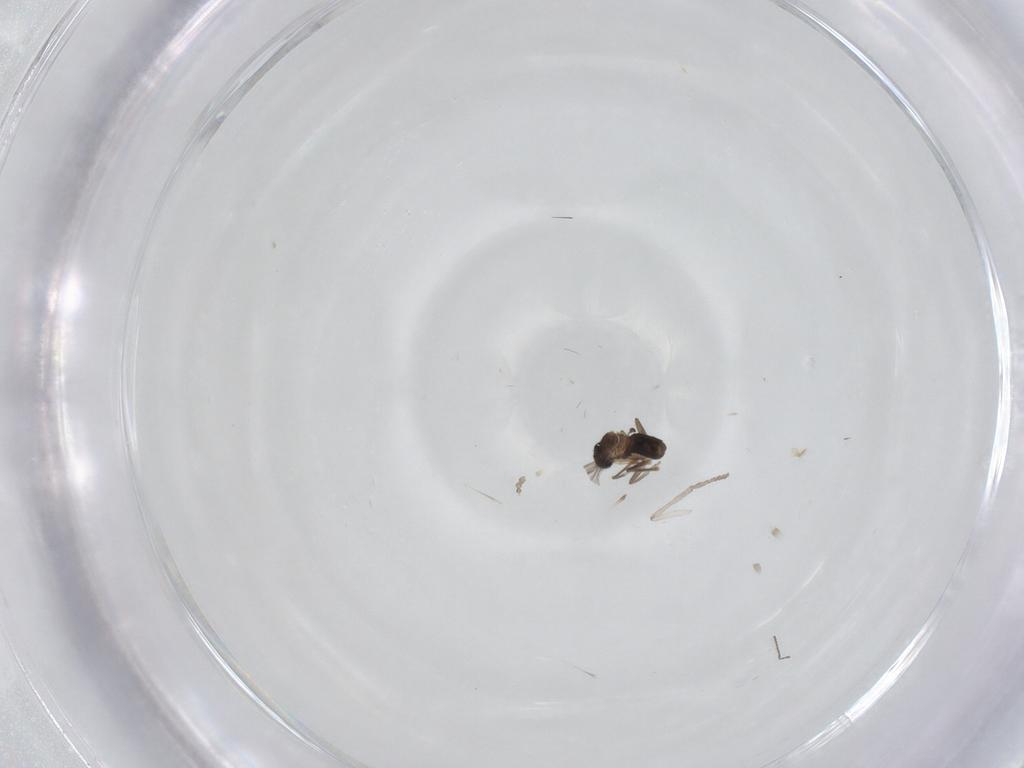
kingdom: Animalia
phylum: Arthropoda
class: Insecta
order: Diptera
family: Psychodidae
